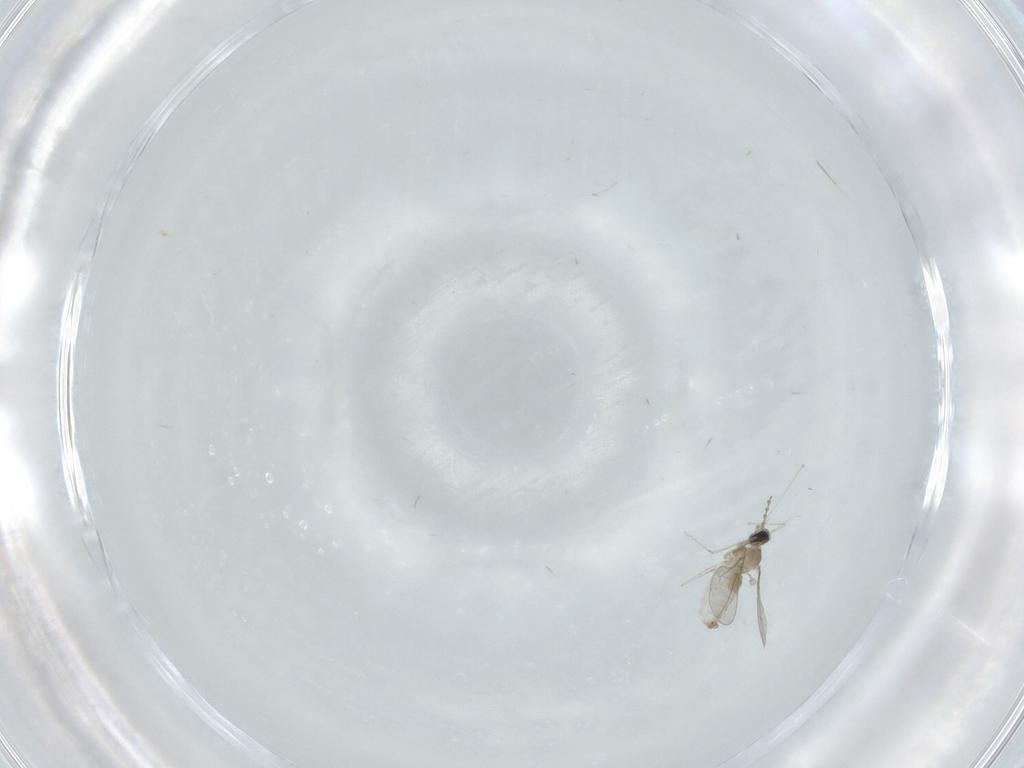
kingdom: Animalia
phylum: Arthropoda
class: Insecta
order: Diptera
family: Cecidomyiidae
